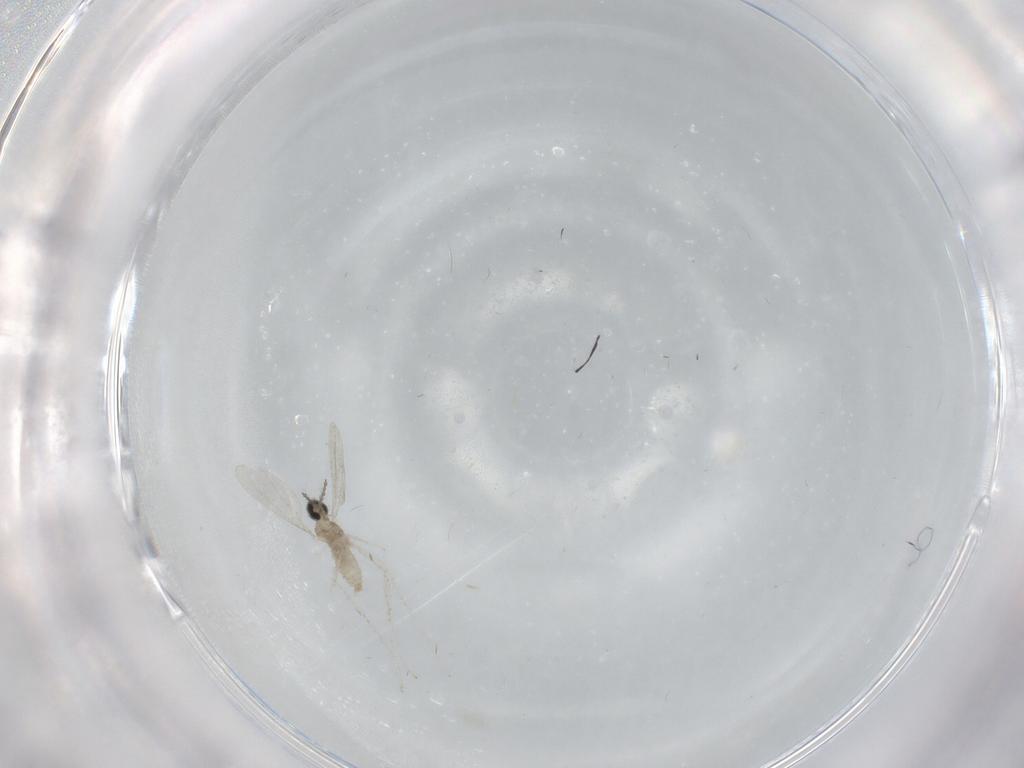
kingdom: Animalia
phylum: Arthropoda
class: Insecta
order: Diptera
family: Cecidomyiidae
